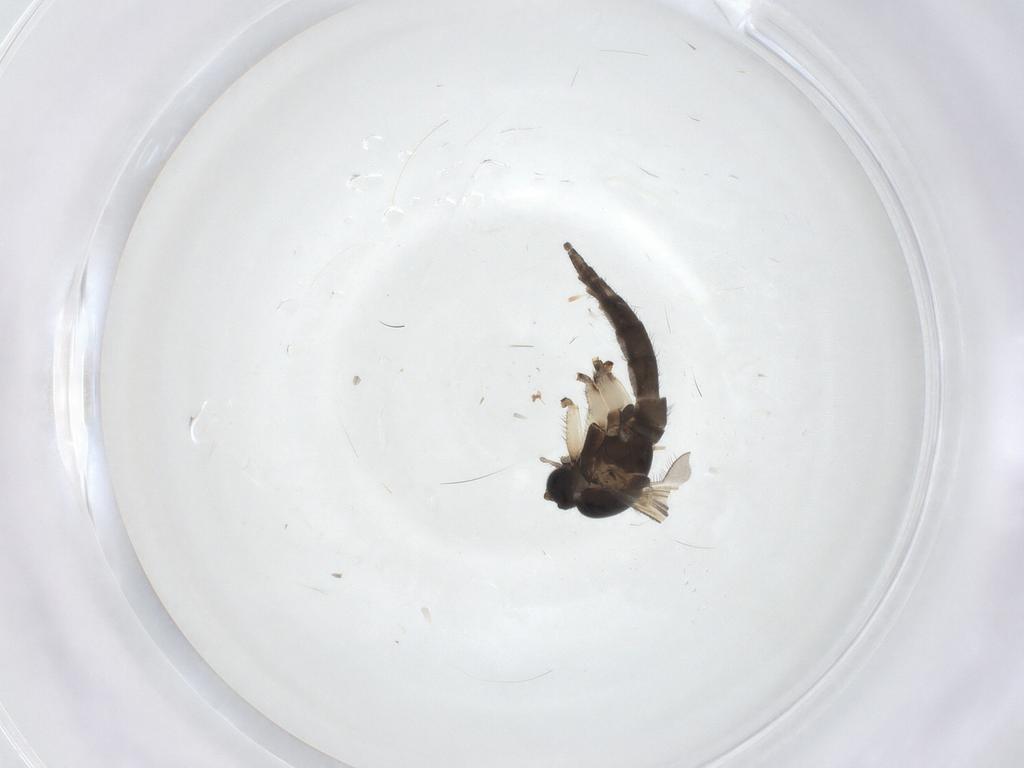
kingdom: Animalia
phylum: Arthropoda
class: Insecta
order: Diptera
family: Sciaridae
